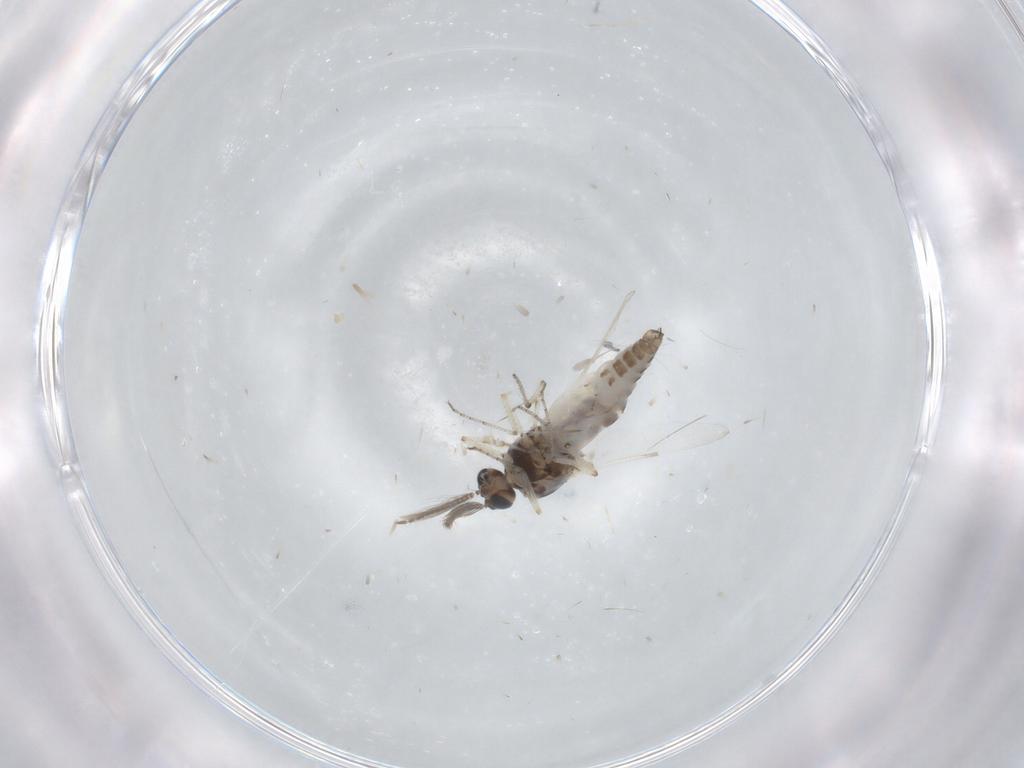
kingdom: Animalia
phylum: Arthropoda
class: Insecta
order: Diptera
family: Ceratopogonidae
